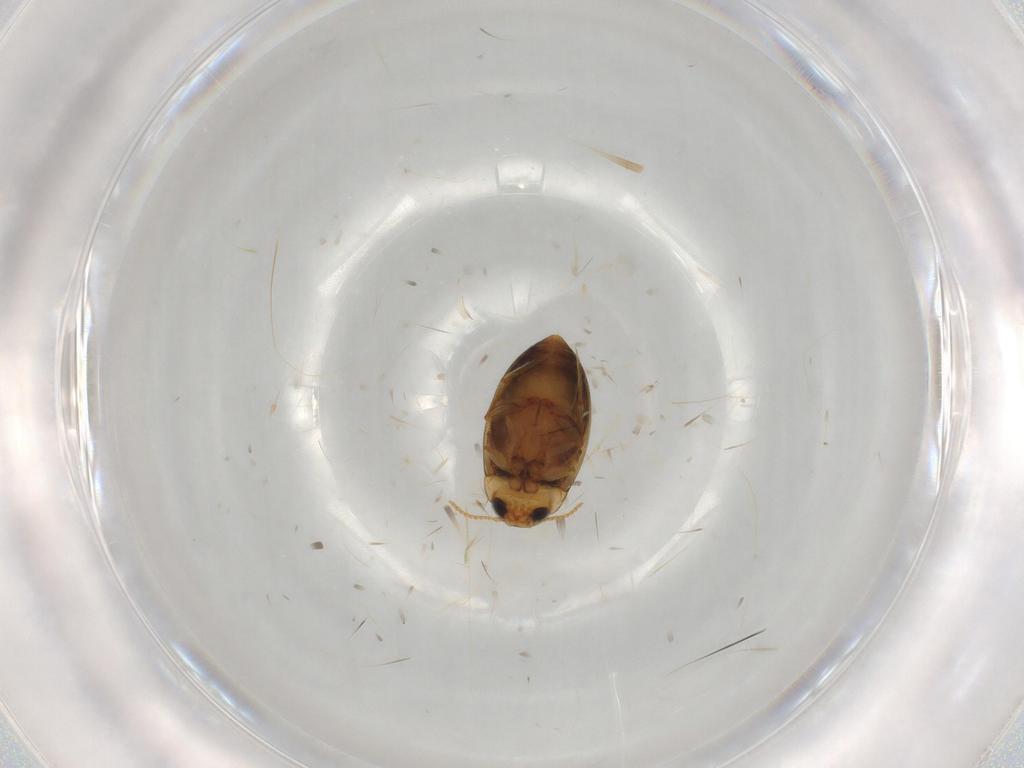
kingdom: Animalia
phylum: Arthropoda
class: Insecta
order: Coleoptera
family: Dytiscidae
